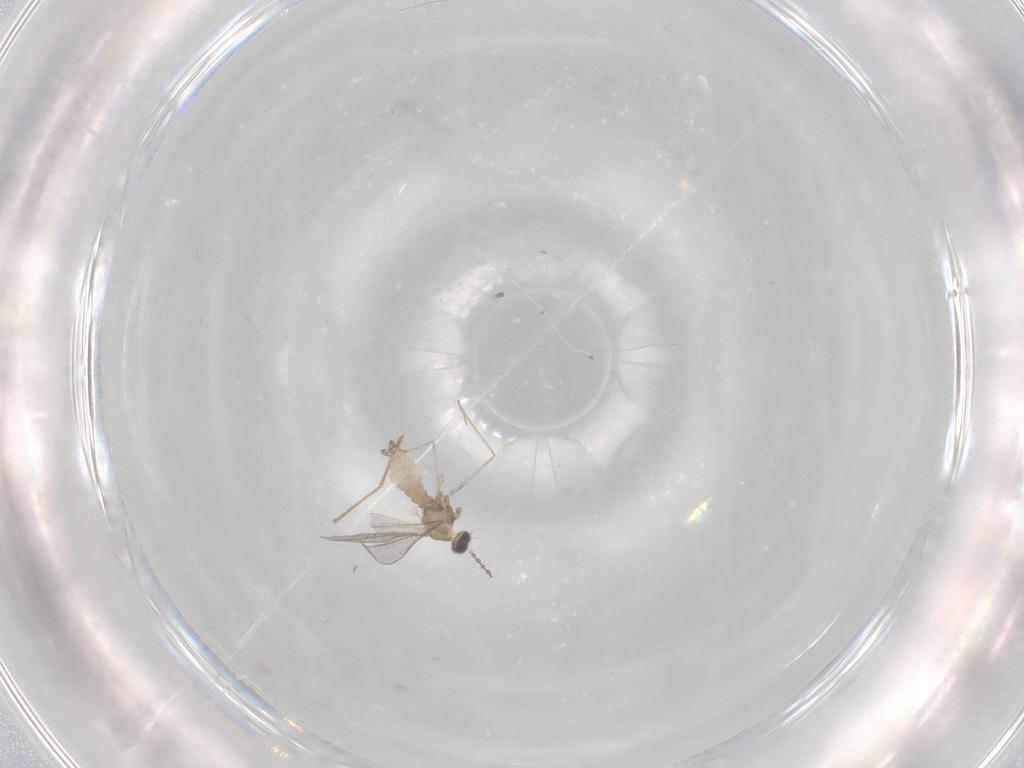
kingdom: Animalia
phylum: Arthropoda
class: Insecta
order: Diptera
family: Cecidomyiidae
